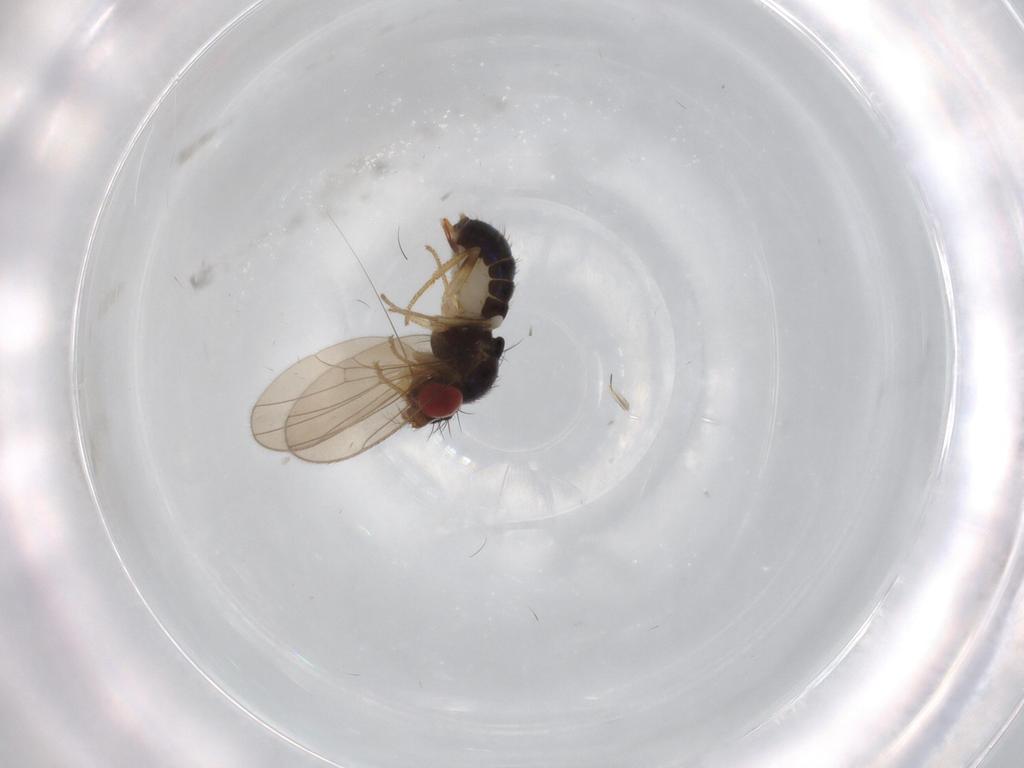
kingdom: Animalia
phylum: Arthropoda
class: Insecta
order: Diptera
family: Drosophilidae
